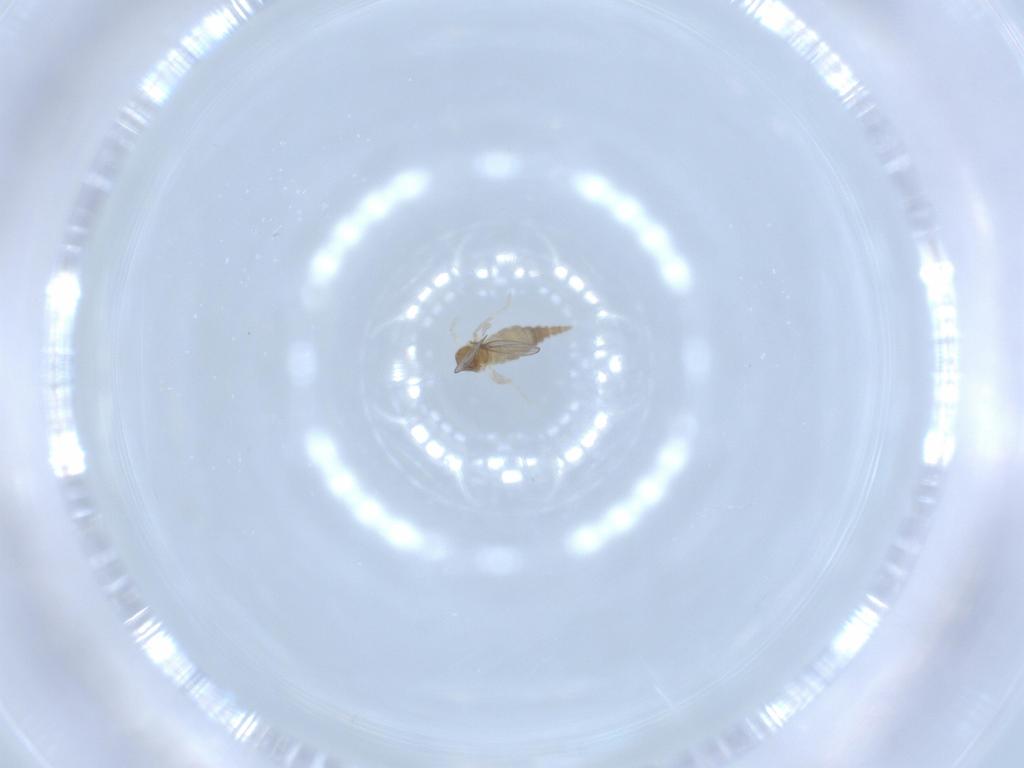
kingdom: Animalia
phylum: Arthropoda
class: Insecta
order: Diptera
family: Cecidomyiidae
